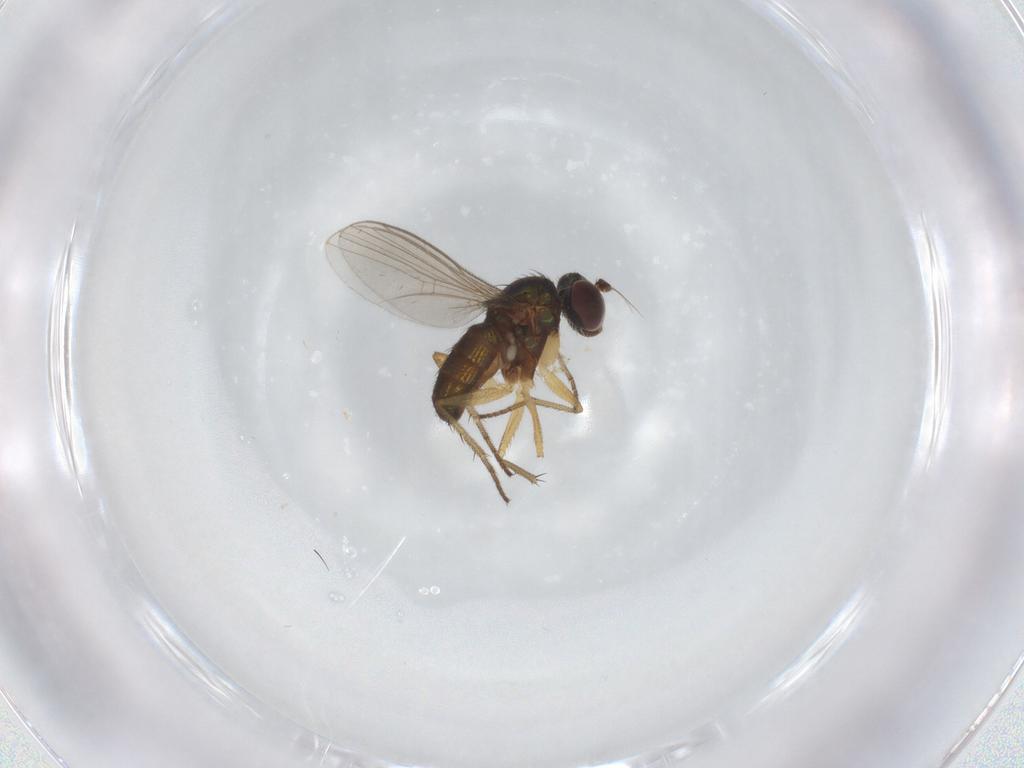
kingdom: Animalia
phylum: Arthropoda
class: Insecta
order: Diptera
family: Dolichopodidae
